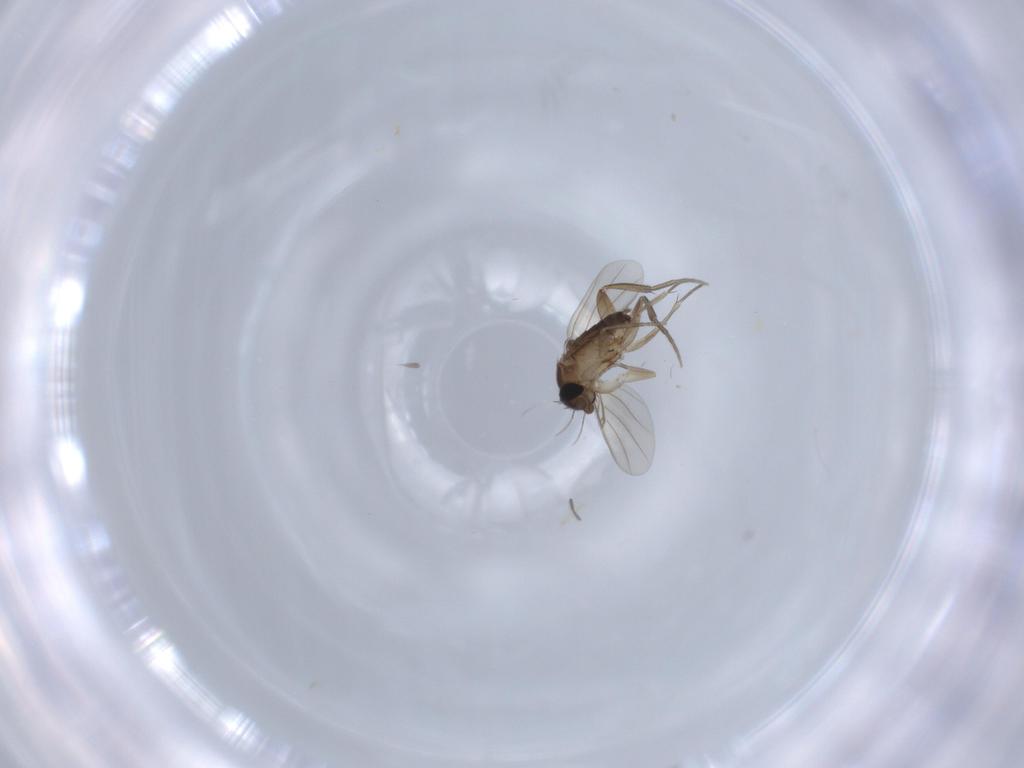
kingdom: Animalia
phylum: Arthropoda
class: Insecta
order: Diptera
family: Phoridae
